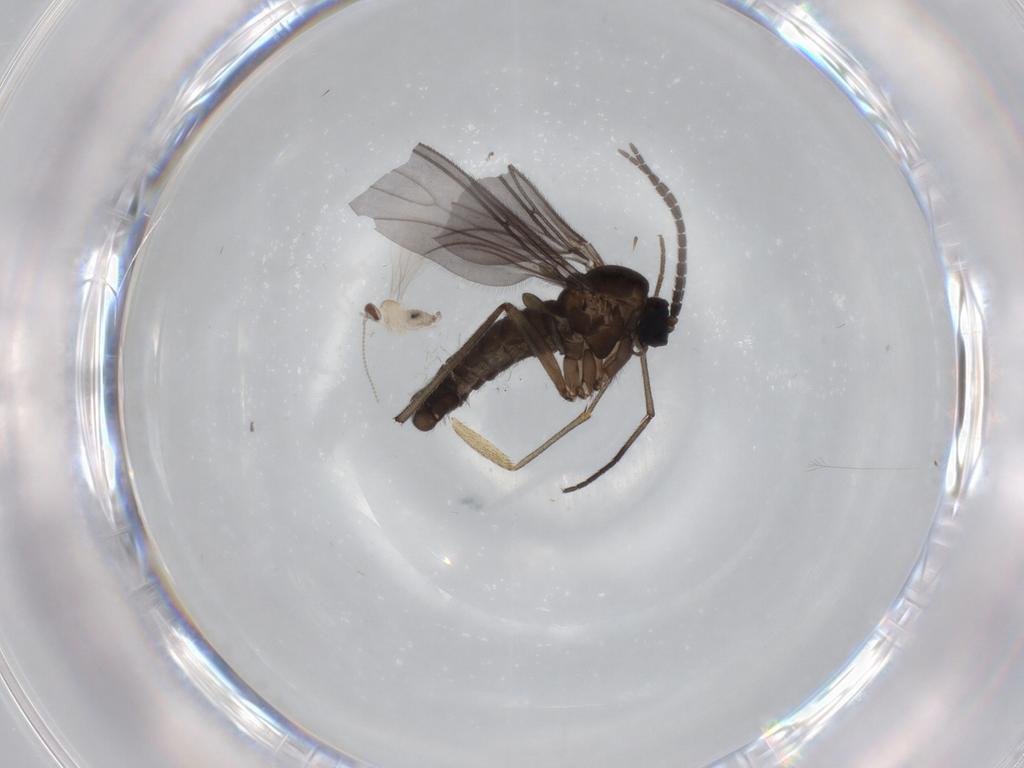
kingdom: Animalia
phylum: Arthropoda
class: Insecta
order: Diptera
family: Sciaridae
